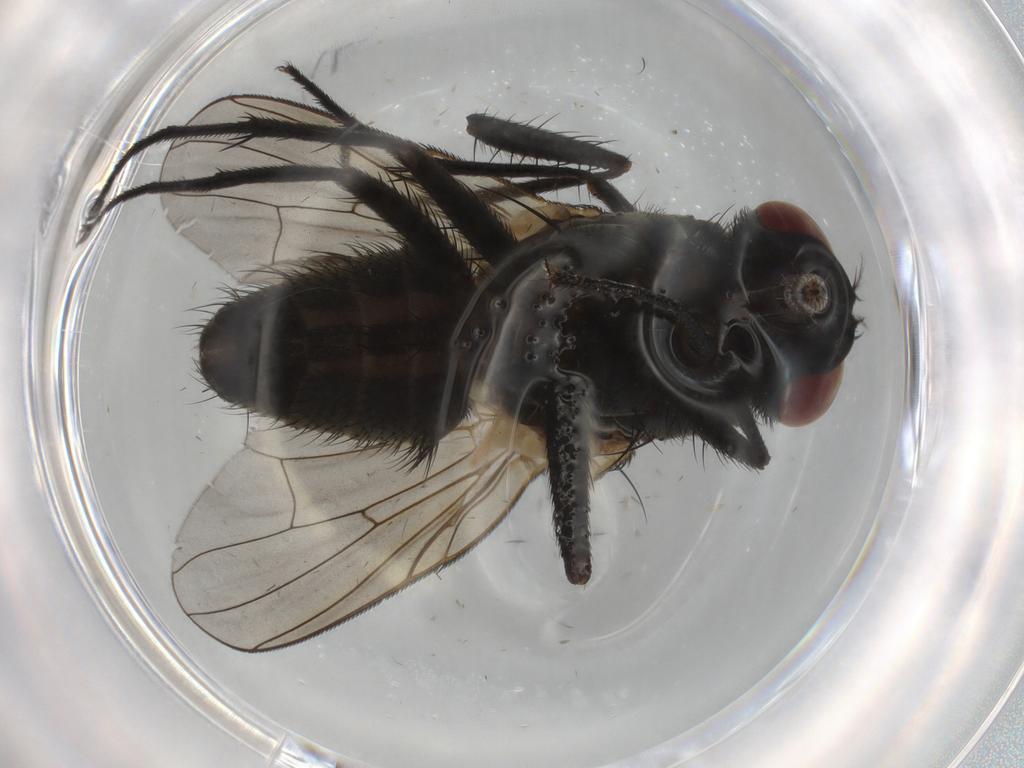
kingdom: Animalia
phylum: Arthropoda
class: Insecta
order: Diptera
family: Muscidae
